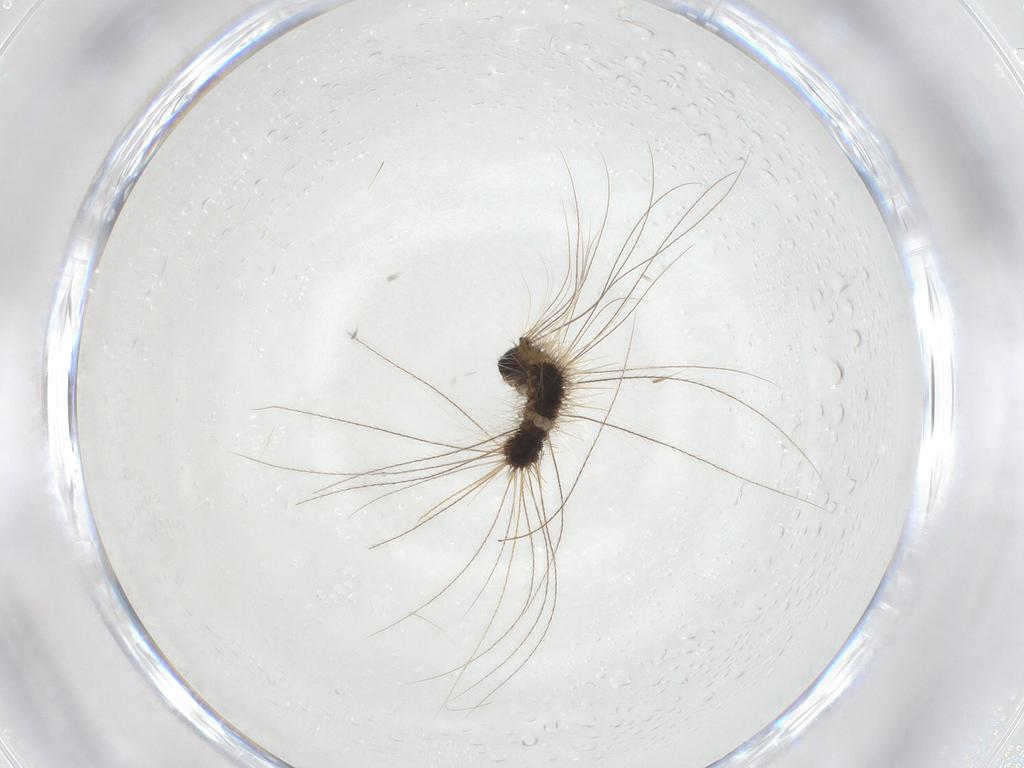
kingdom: Animalia
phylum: Arthropoda
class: Insecta
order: Lepidoptera
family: Erebidae
